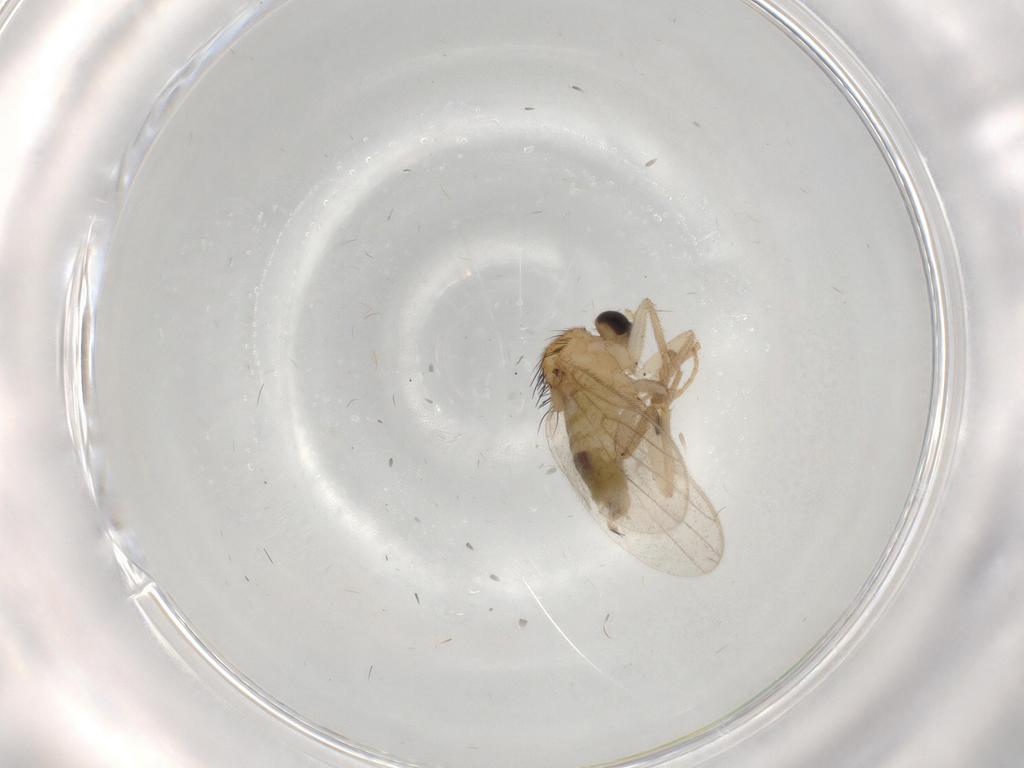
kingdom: Animalia
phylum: Arthropoda
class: Insecta
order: Diptera
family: Hybotidae
